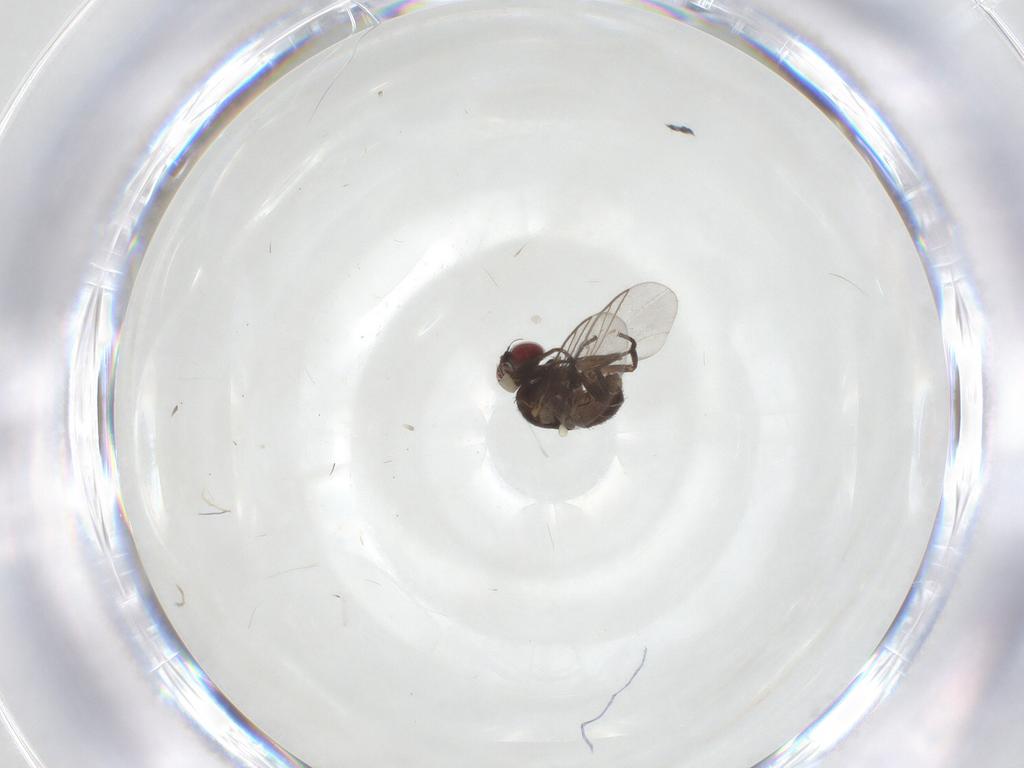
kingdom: Animalia
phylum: Arthropoda
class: Insecta
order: Diptera
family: Agromyzidae
